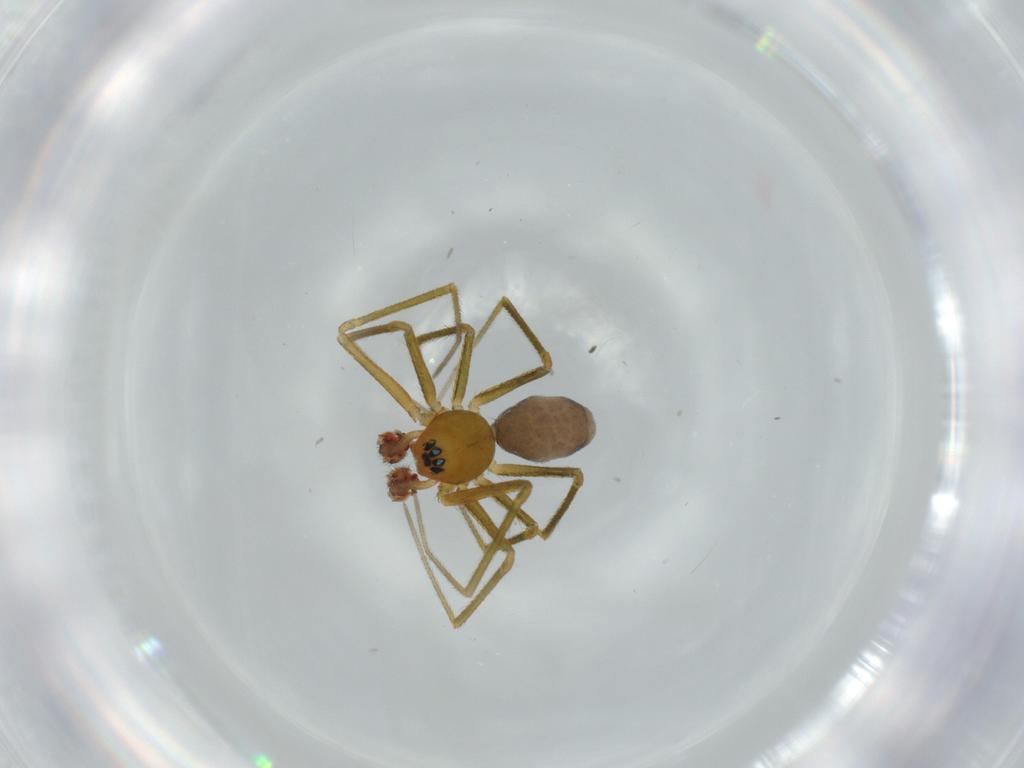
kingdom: Animalia
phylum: Arthropoda
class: Arachnida
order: Araneae
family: Linyphiidae
